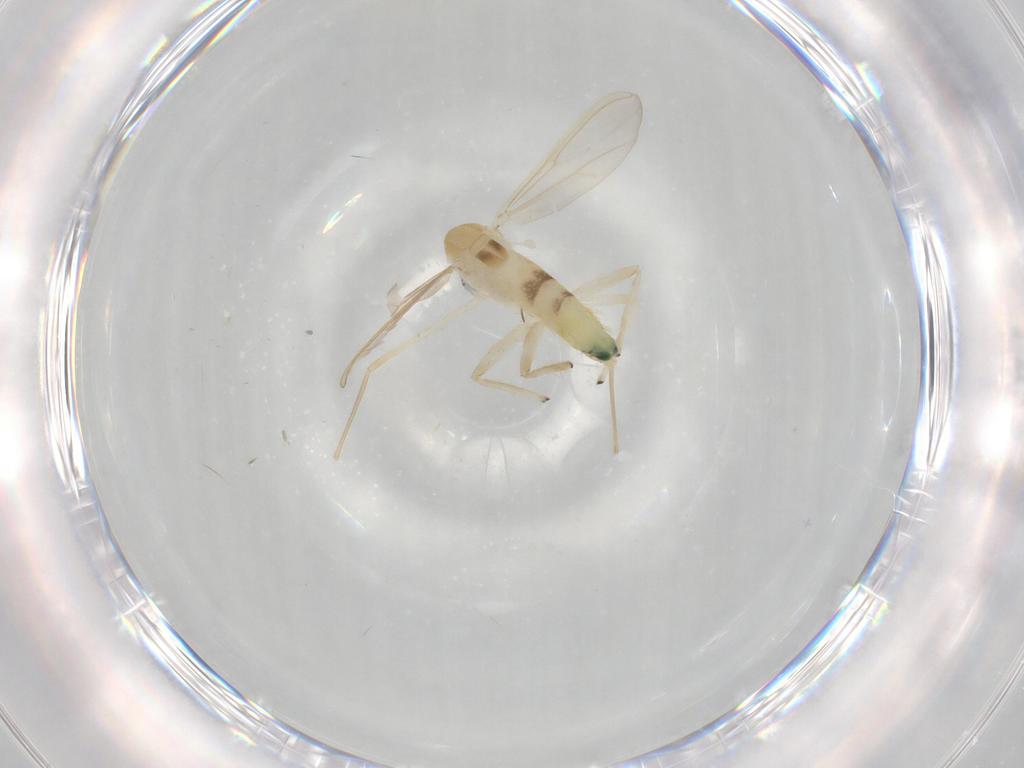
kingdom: Animalia
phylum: Arthropoda
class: Insecta
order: Diptera
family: Chironomidae
